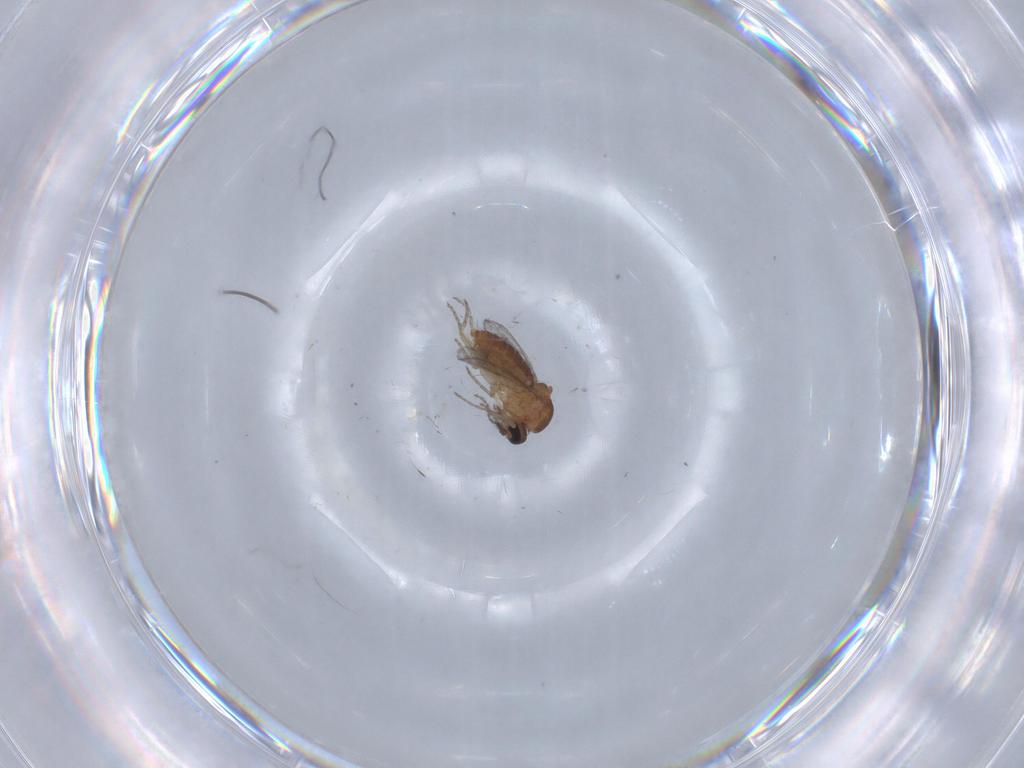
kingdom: Animalia
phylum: Arthropoda
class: Insecta
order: Diptera
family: Ceratopogonidae
